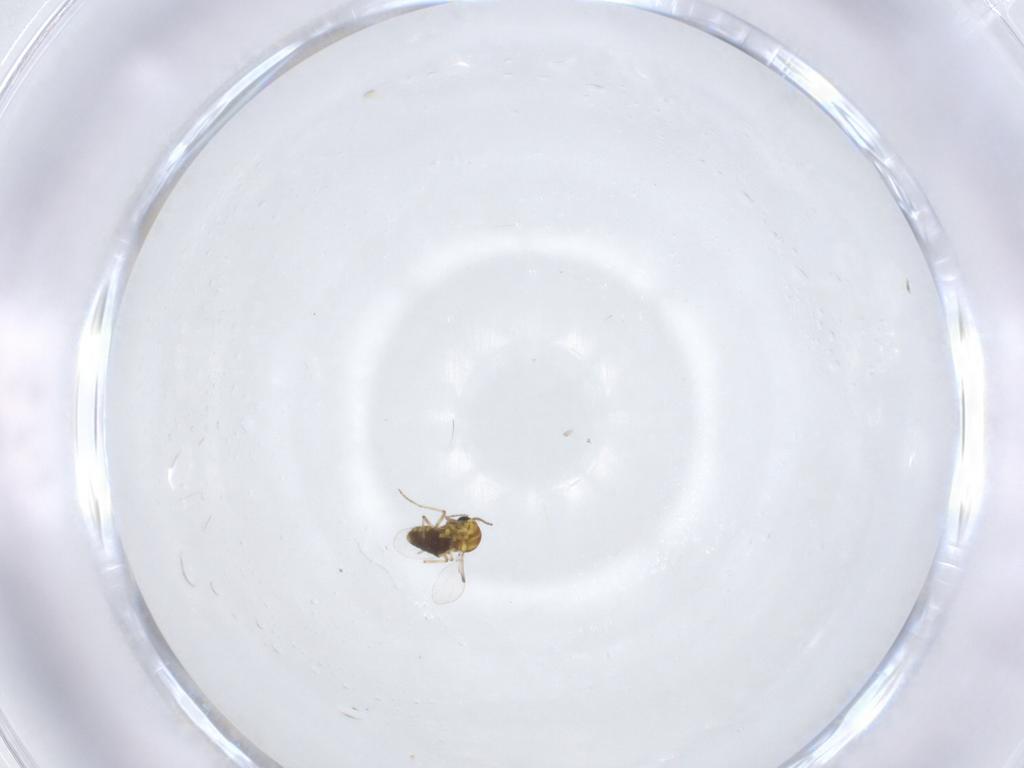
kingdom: Animalia
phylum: Arthropoda
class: Insecta
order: Diptera
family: Ceratopogonidae
